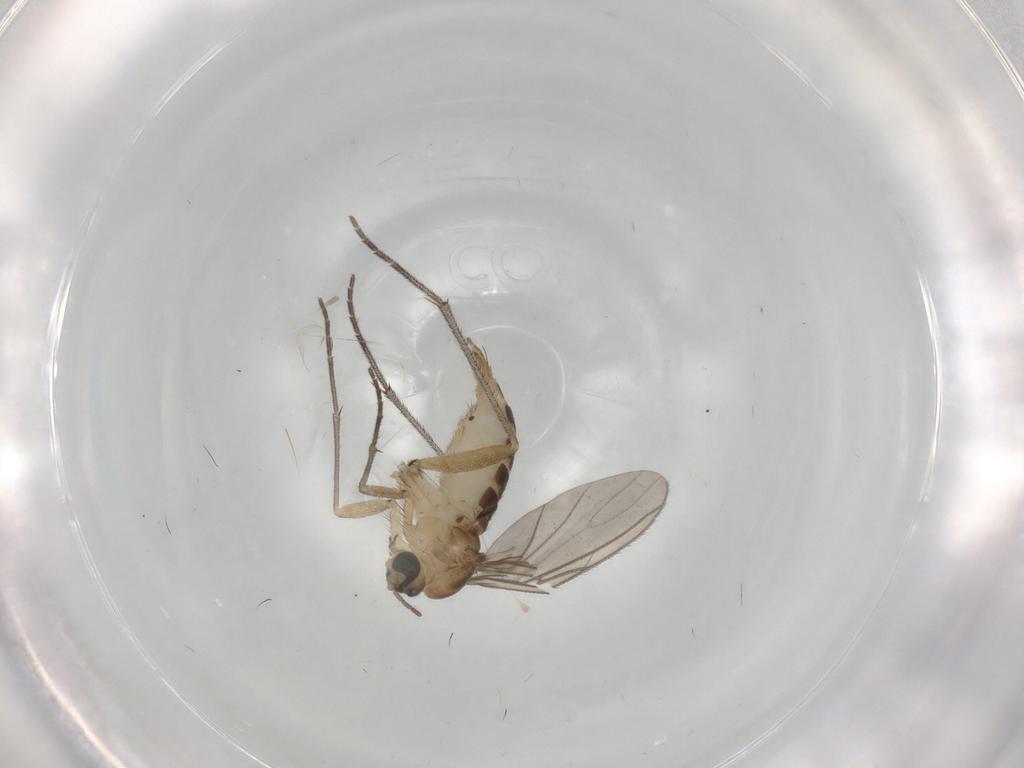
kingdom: Animalia
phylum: Arthropoda
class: Insecta
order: Diptera
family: Sciaridae
